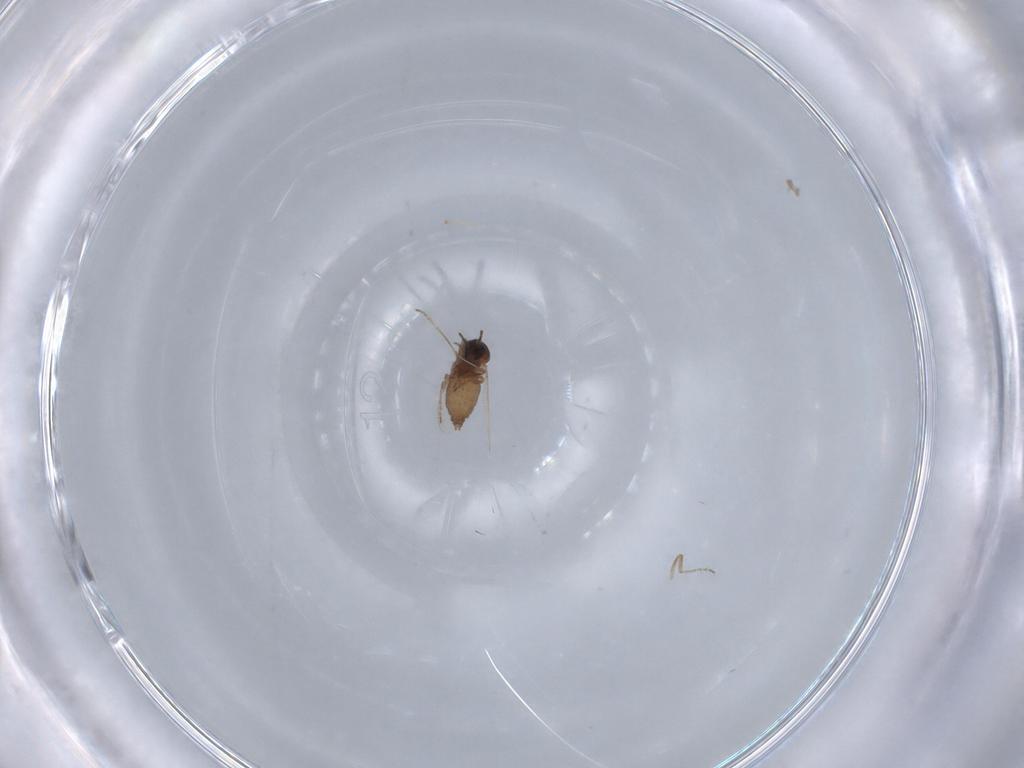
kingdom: Animalia
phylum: Arthropoda
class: Insecta
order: Diptera
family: Ceratopogonidae
